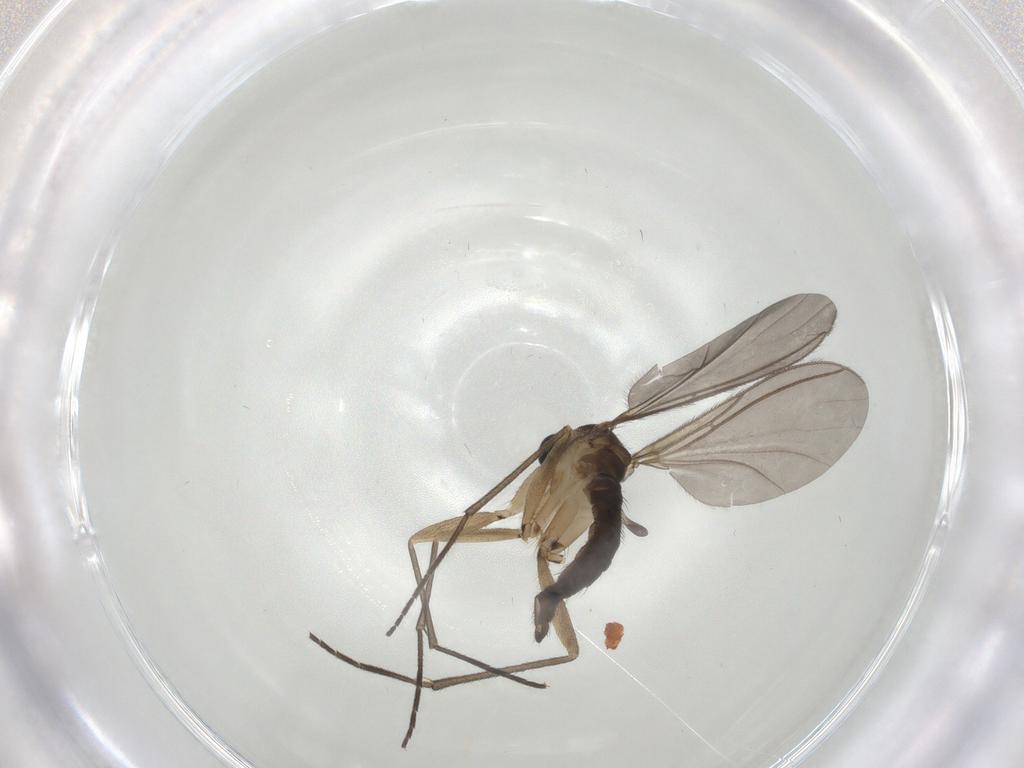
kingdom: Animalia
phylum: Arthropoda
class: Insecta
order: Diptera
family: Sciaridae
